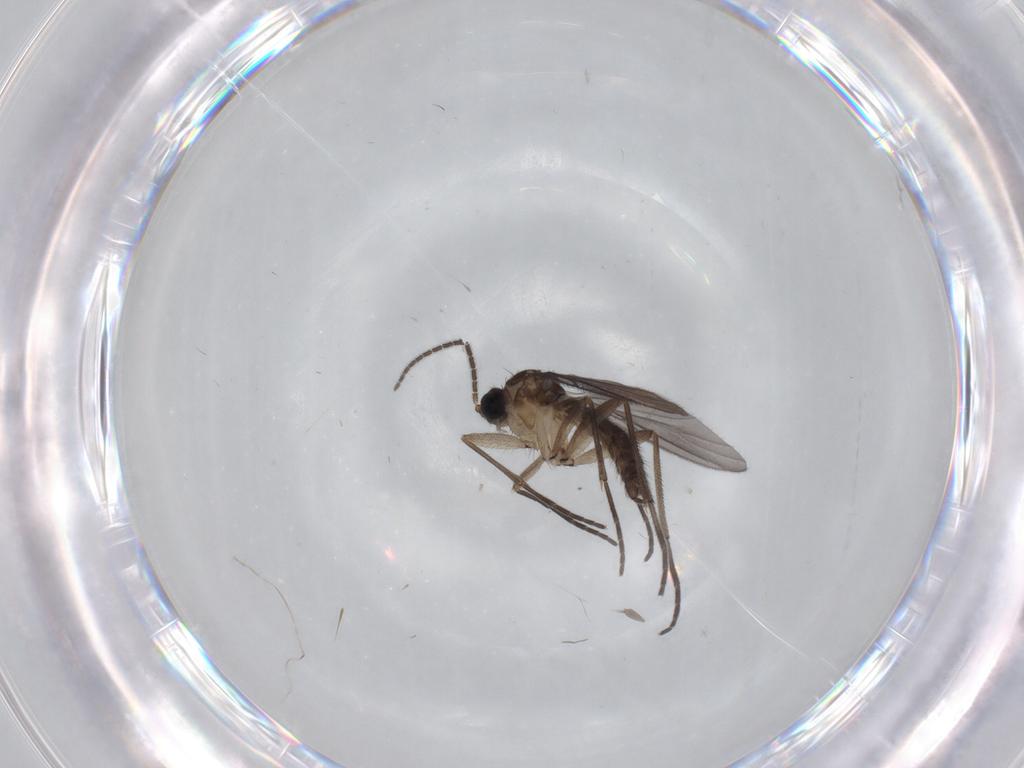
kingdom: Animalia
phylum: Arthropoda
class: Insecta
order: Diptera
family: Sciaridae
